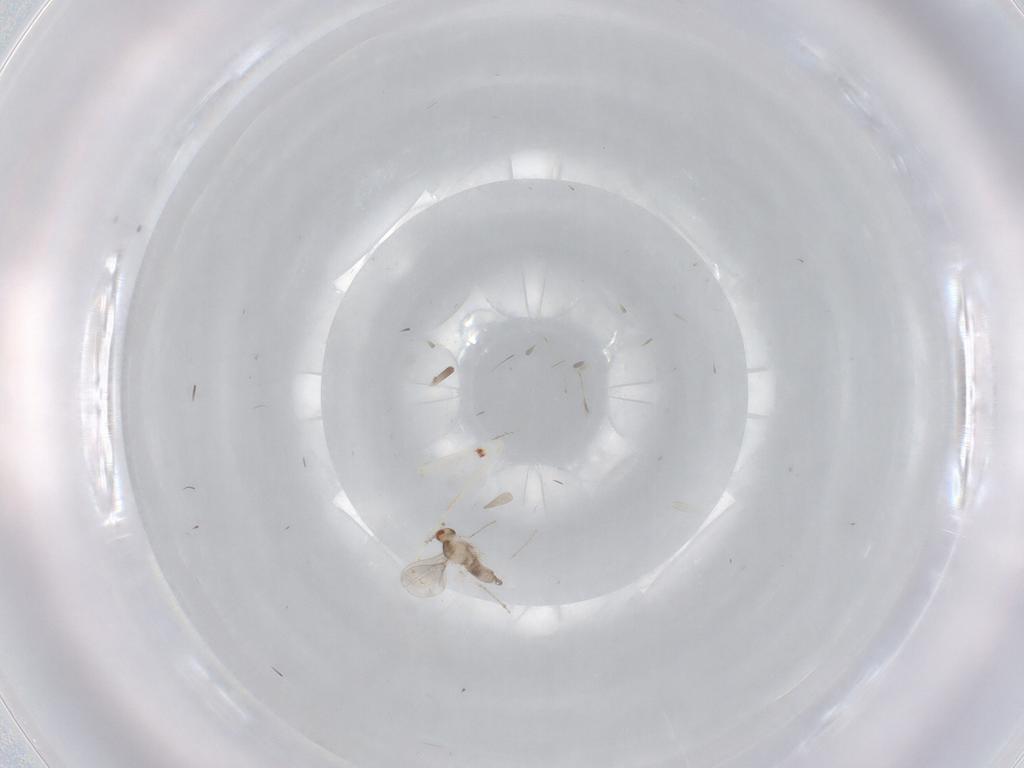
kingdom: Animalia
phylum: Arthropoda
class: Insecta
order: Diptera
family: Cecidomyiidae
